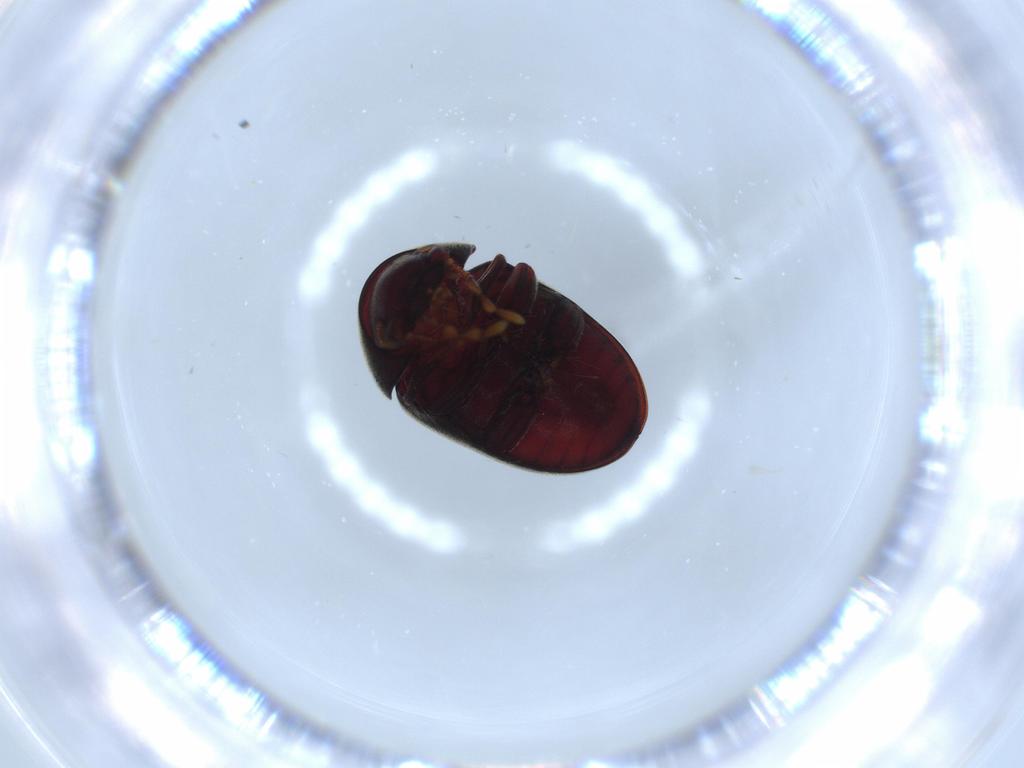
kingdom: Animalia
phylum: Arthropoda
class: Insecta
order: Coleoptera
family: Ptinidae
